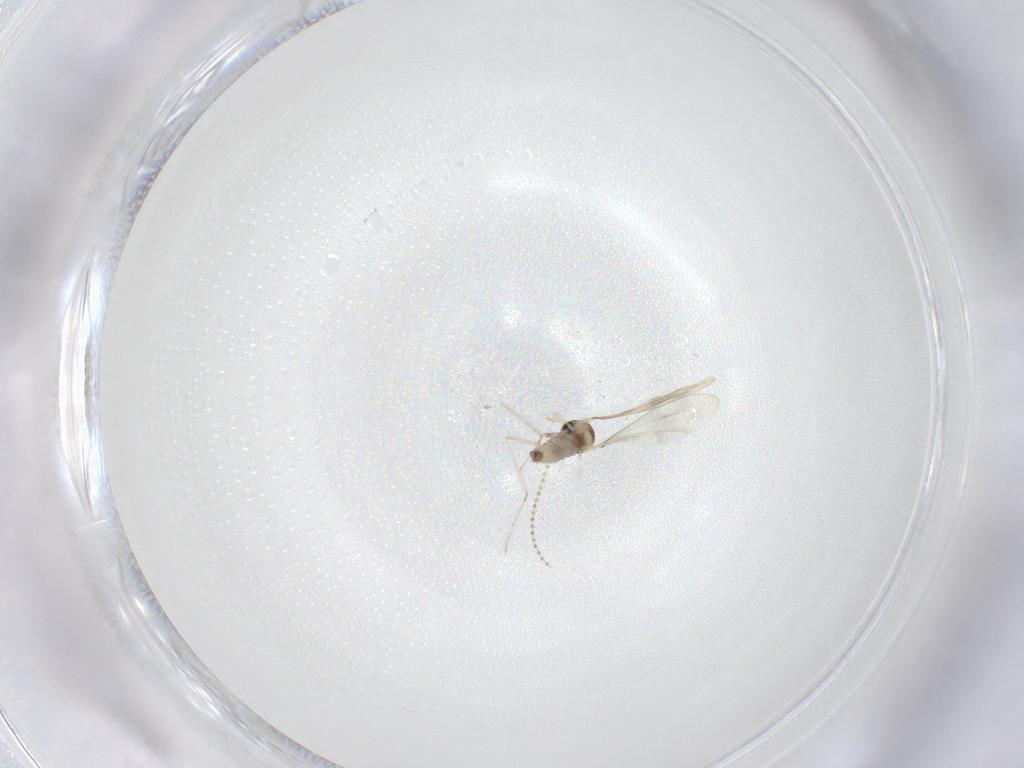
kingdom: Animalia
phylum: Arthropoda
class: Insecta
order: Diptera
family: Cecidomyiidae
